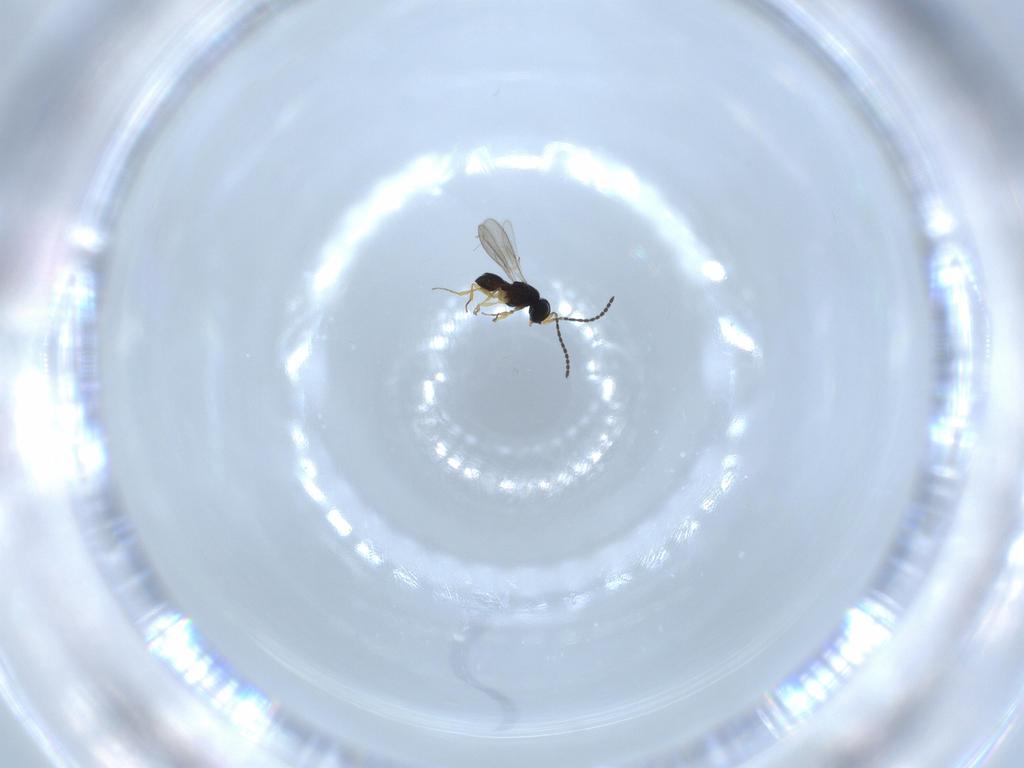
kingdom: Animalia
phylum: Arthropoda
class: Insecta
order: Hymenoptera
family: Scelionidae
